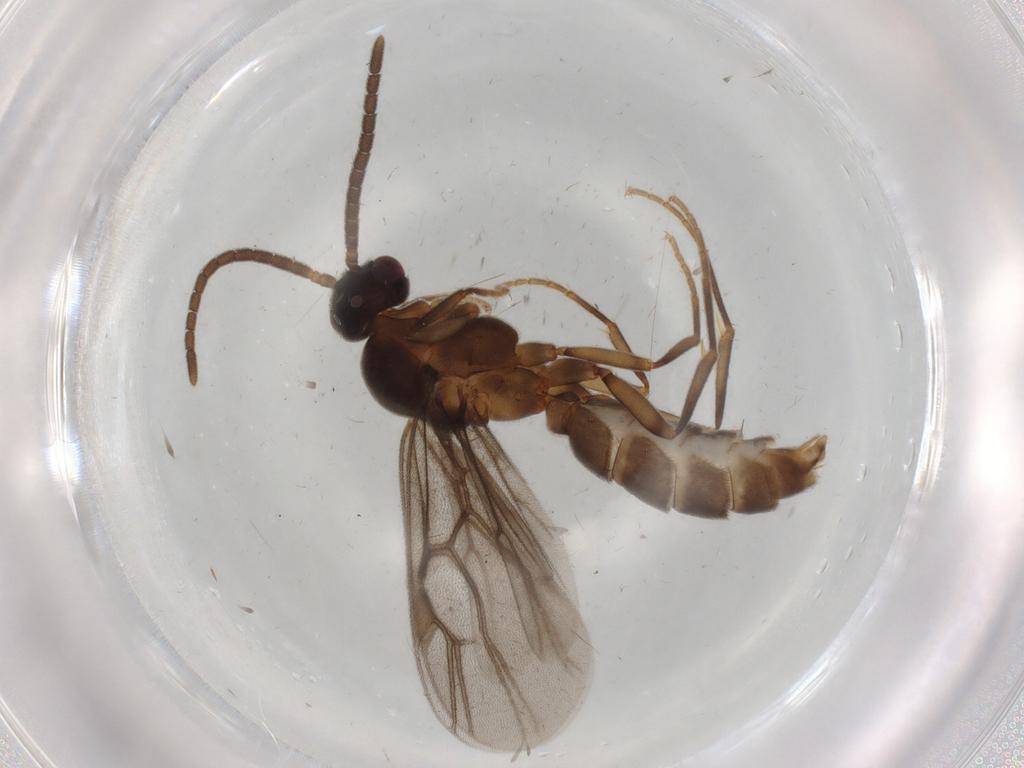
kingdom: Animalia
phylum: Arthropoda
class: Insecta
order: Hymenoptera
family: Formicidae
